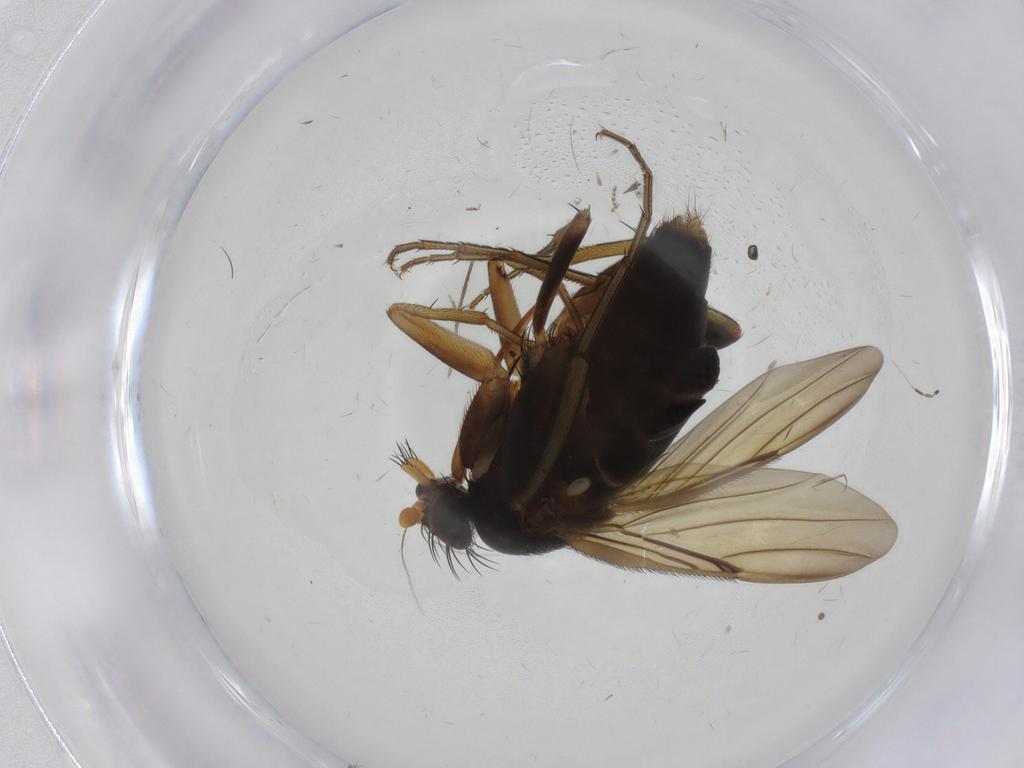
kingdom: Animalia
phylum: Arthropoda
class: Insecta
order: Diptera
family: Phoridae
